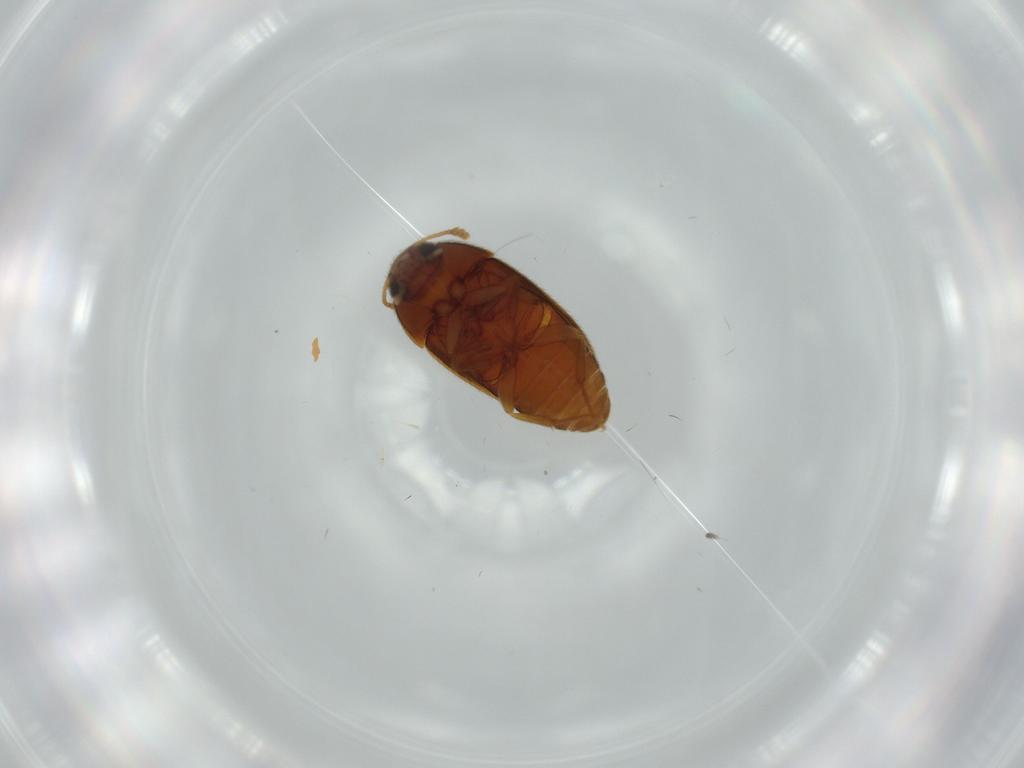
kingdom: Animalia
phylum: Arthropoda
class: Insecta
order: Coleoptera
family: Mycetophagidae
